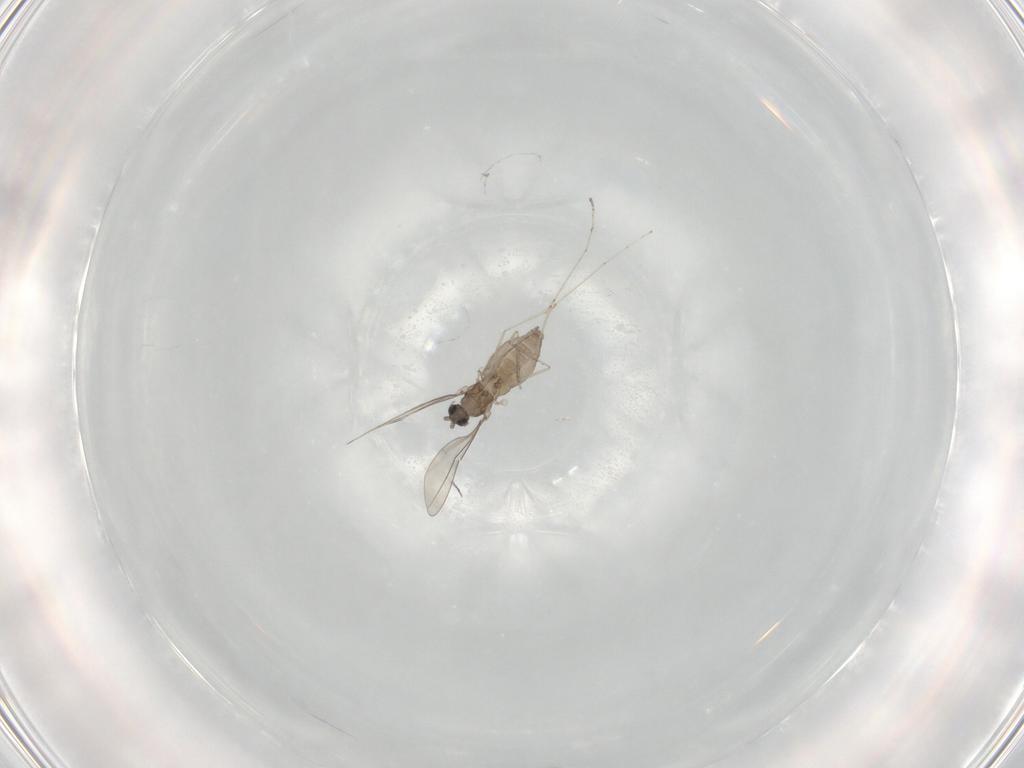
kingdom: Animalia
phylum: Arthropoda
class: Insecta
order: Diptera
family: Cecidomyiidae
